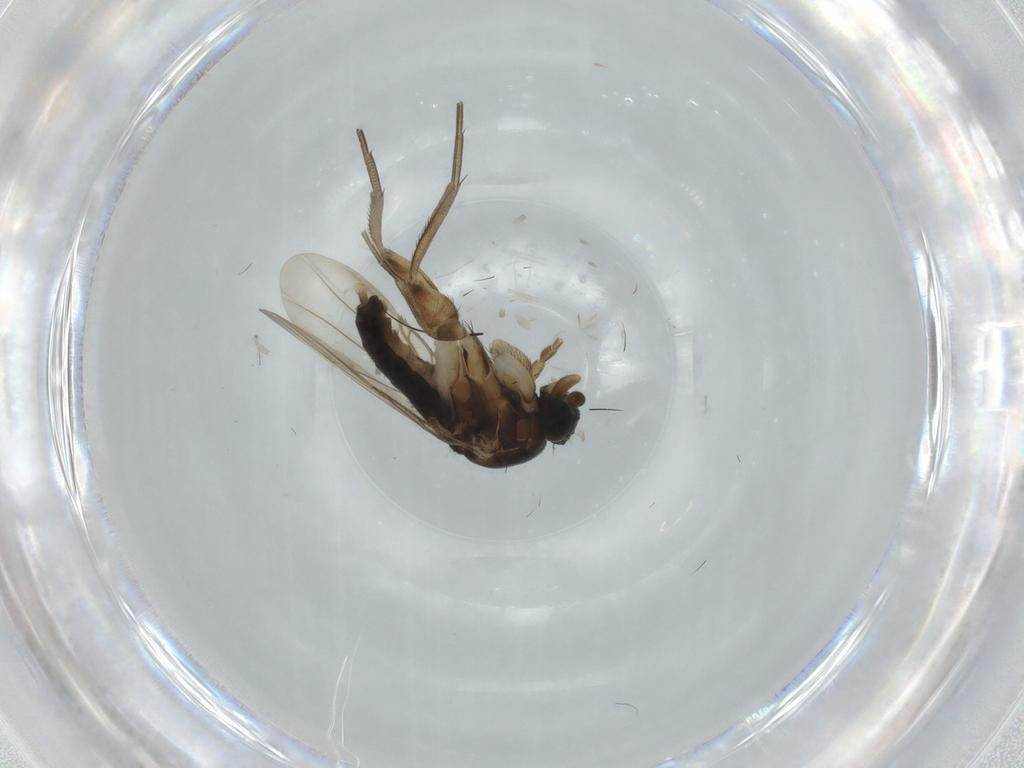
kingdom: Animalia
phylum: Arthropoda
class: Insecta
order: Diptera
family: Phoridae
